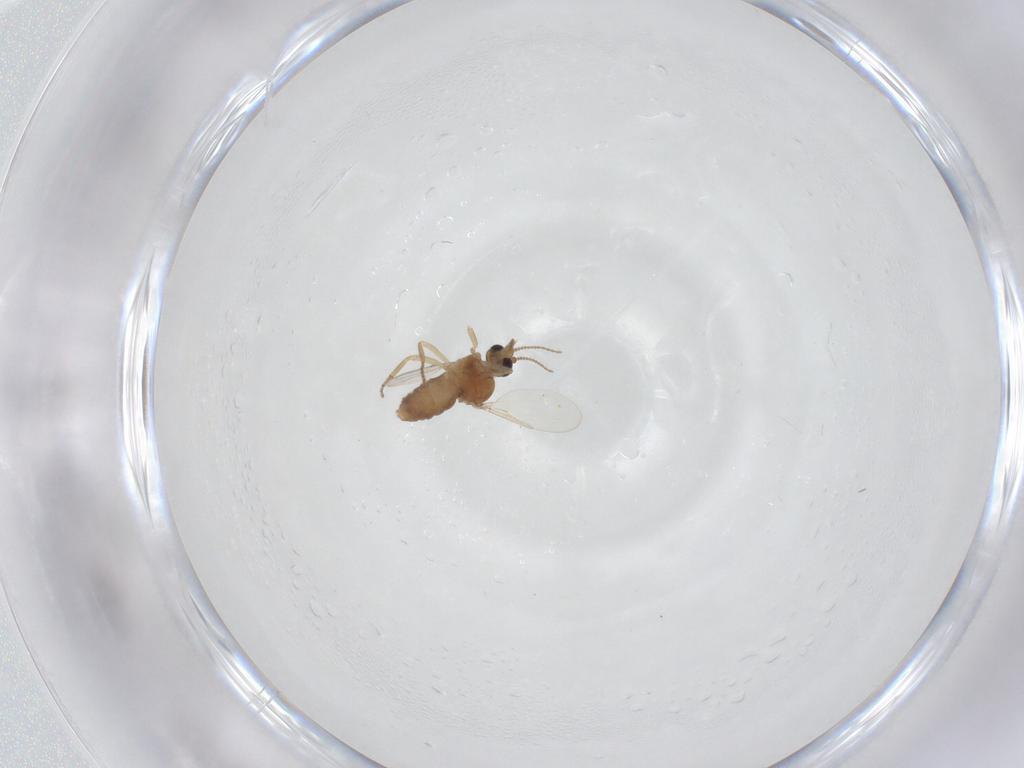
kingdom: Animalia
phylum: Arthropoda
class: Insecta
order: Diptera
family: Ceratopogonidae
